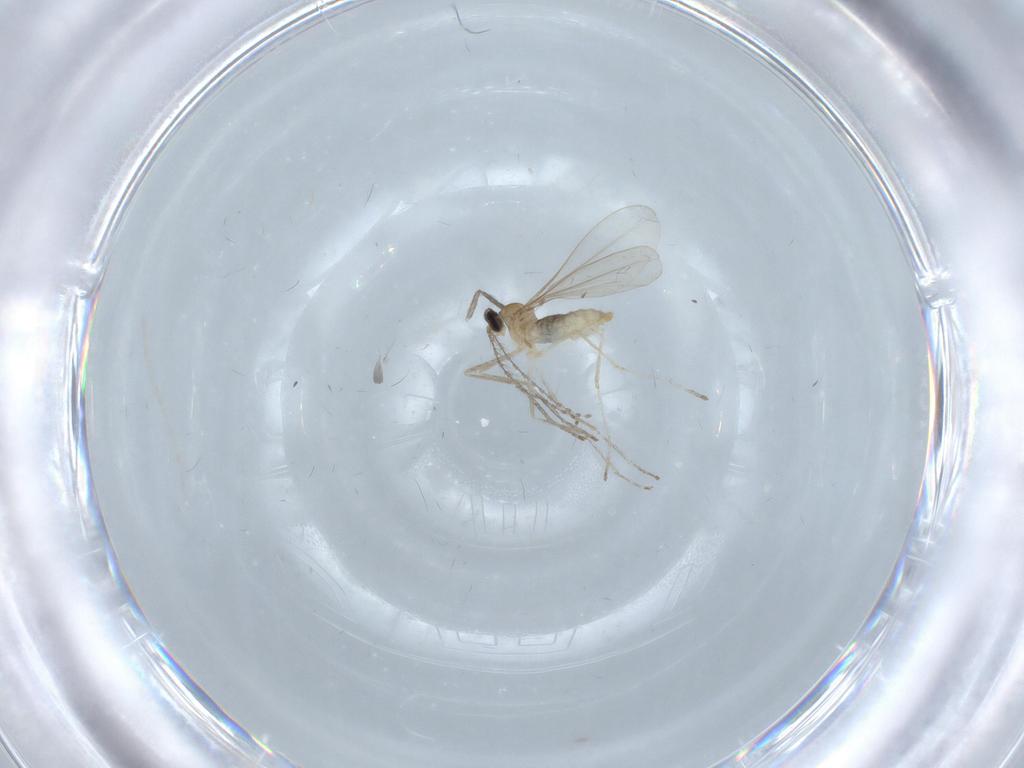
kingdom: Animalia
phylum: Arthropoda
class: Insecta
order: Diptera
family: Cecidomyiidae
